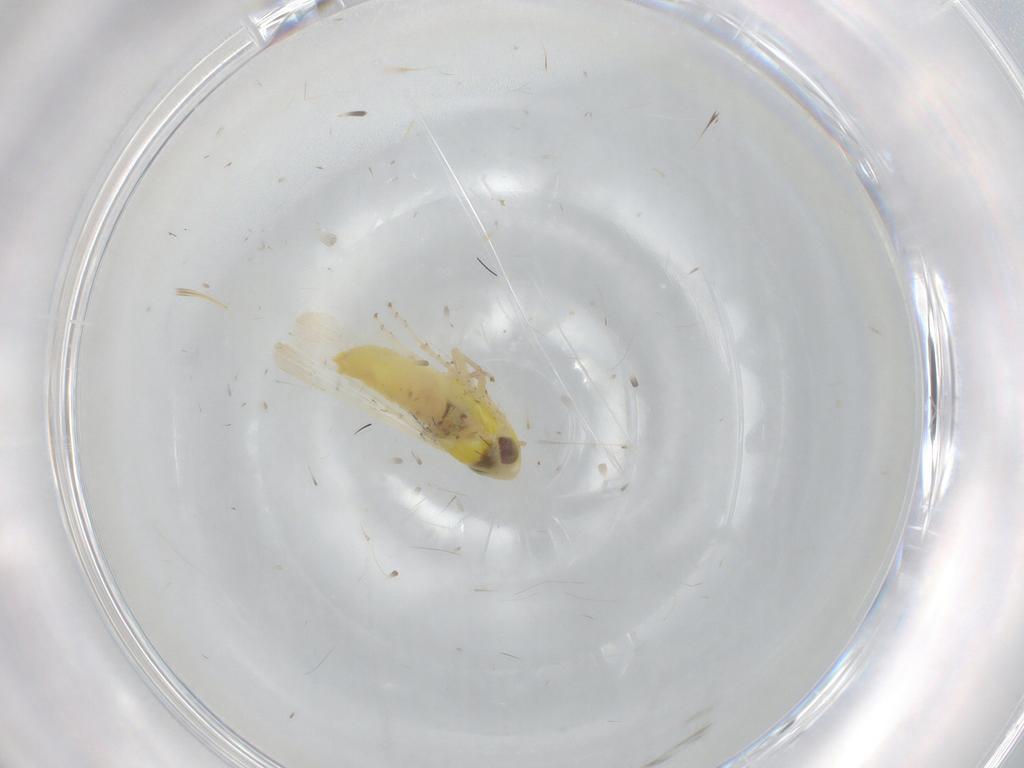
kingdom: Animalia
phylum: Arthropoda
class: Insecta
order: Hemiptera
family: Cicadellidae
